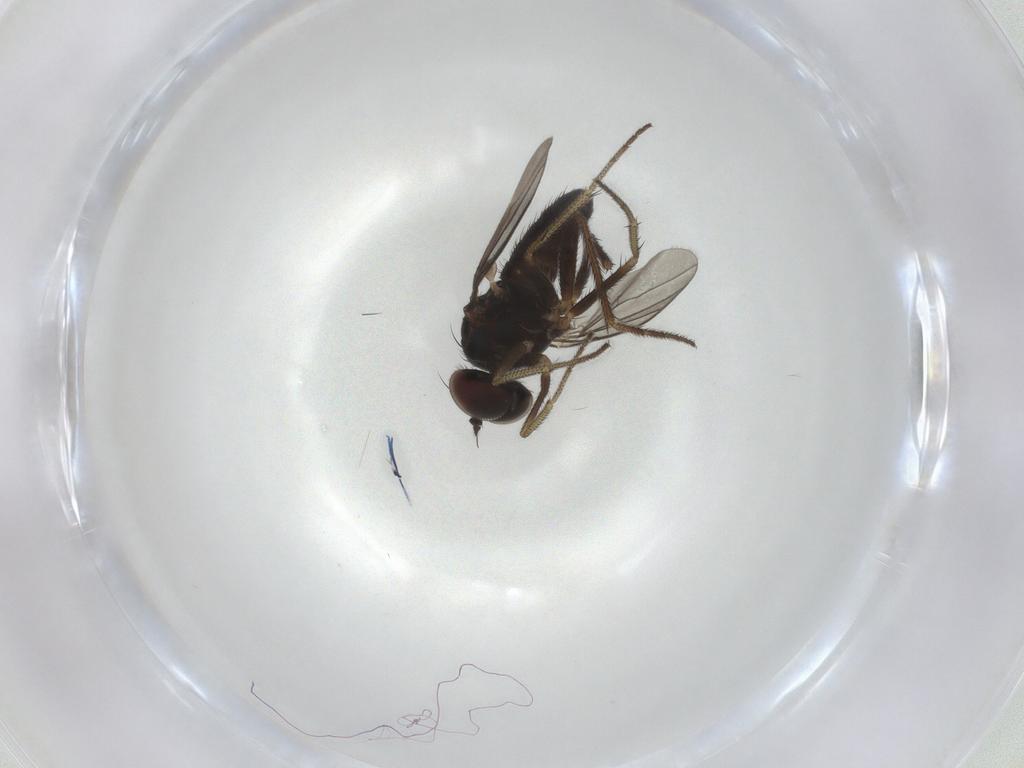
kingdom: Animalia
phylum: Arthropoda
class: Insecta
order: Diptera
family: Dolichopodidae
